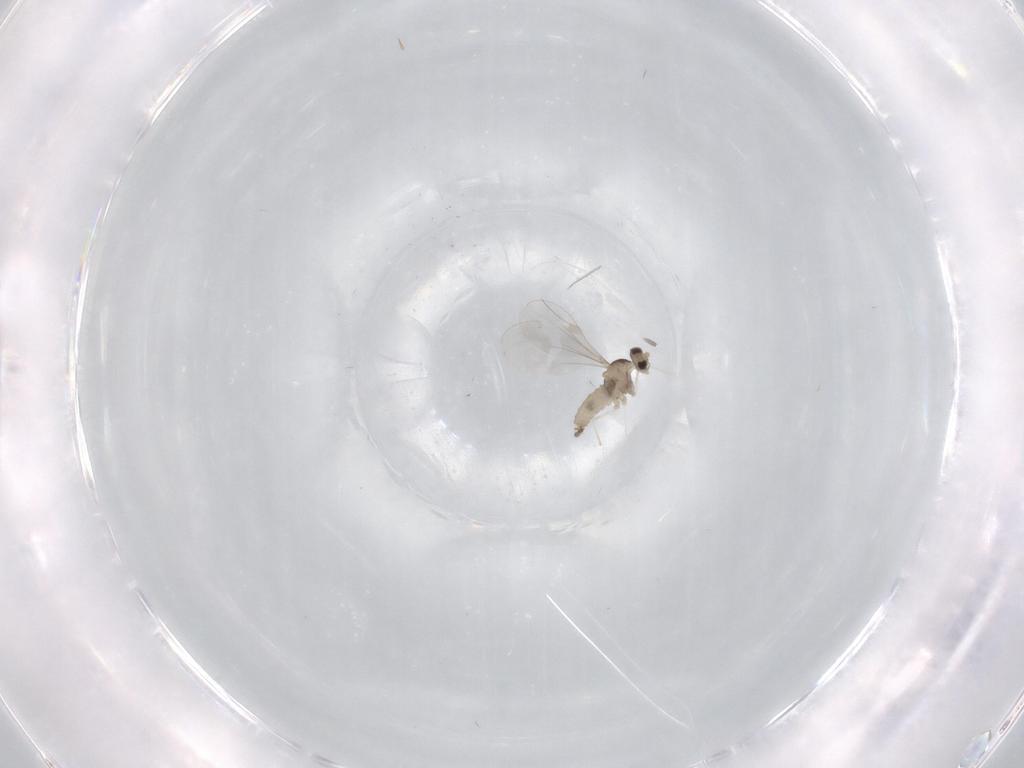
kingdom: Animalia
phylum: Arthropoda
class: Insecta
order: Diptera
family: Cecidomyiidae
